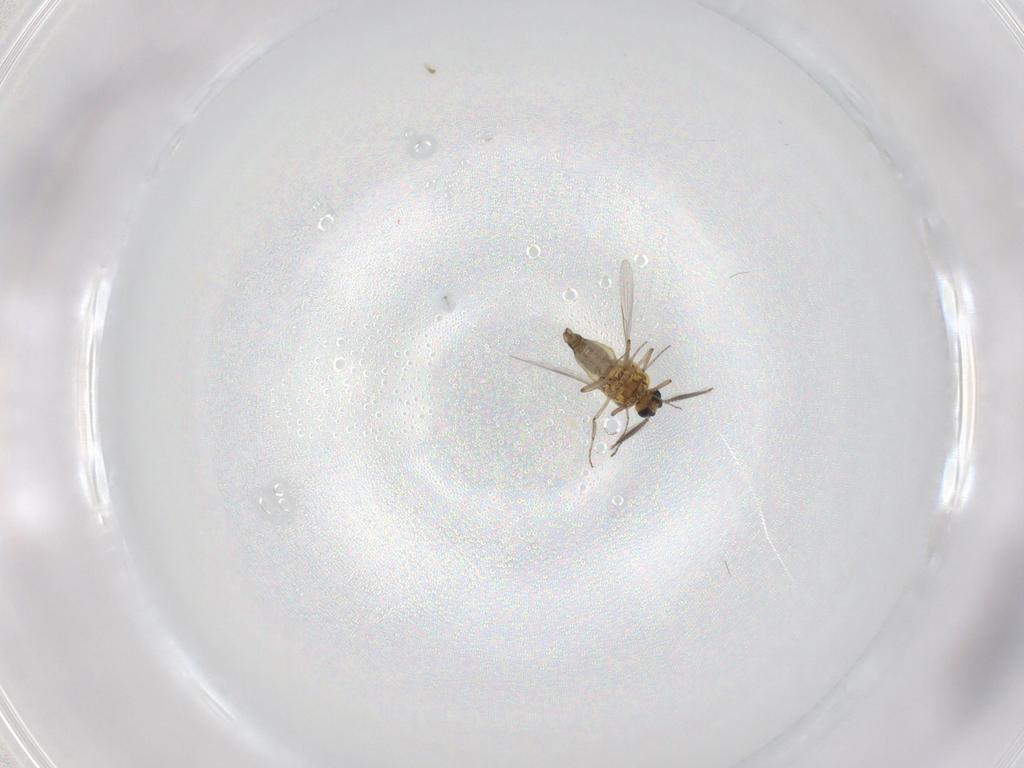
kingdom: Animalia
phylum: Arthropoda
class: Insecta
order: Diptera
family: Ceratopogonidae
